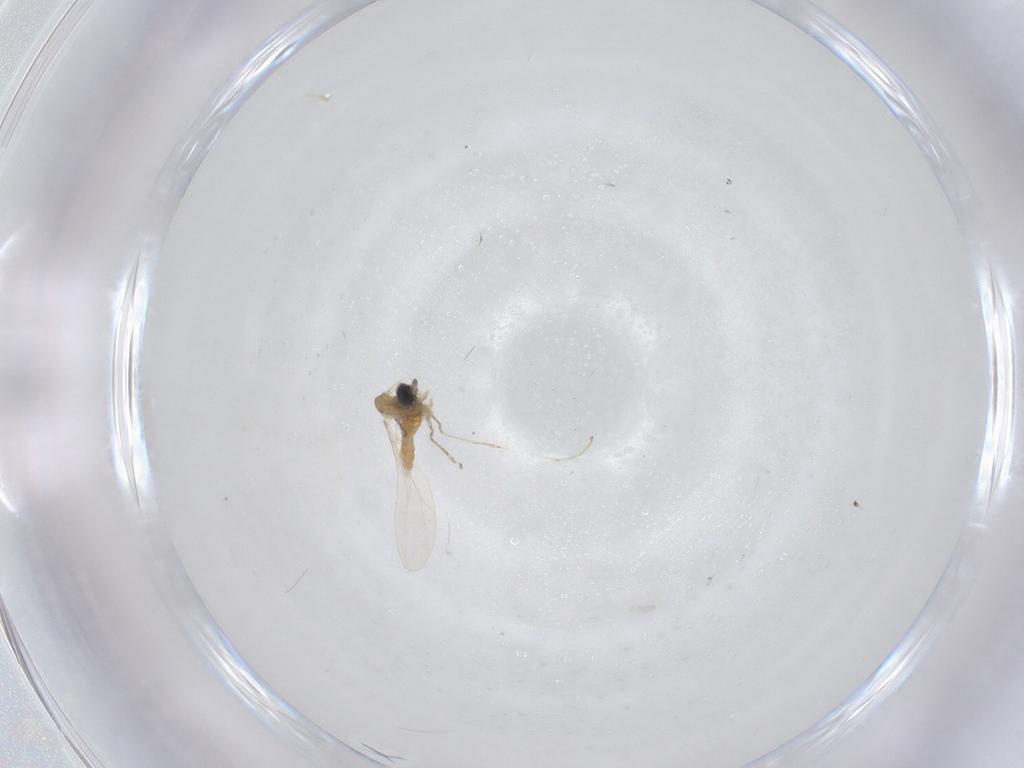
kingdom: Animalia
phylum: Arthropoda
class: Insecta
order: Diptera
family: Cecidomyiidae
